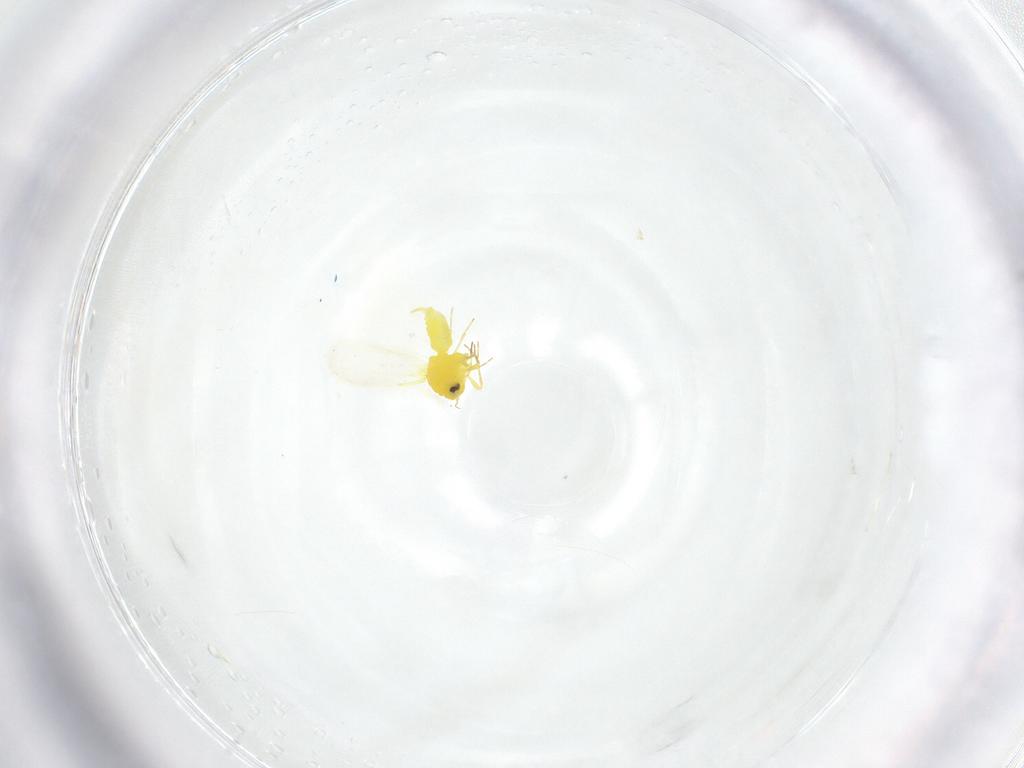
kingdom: Animalia
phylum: Arthropoda
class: Insecta
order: Hemiptera
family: Aleyrodidae
